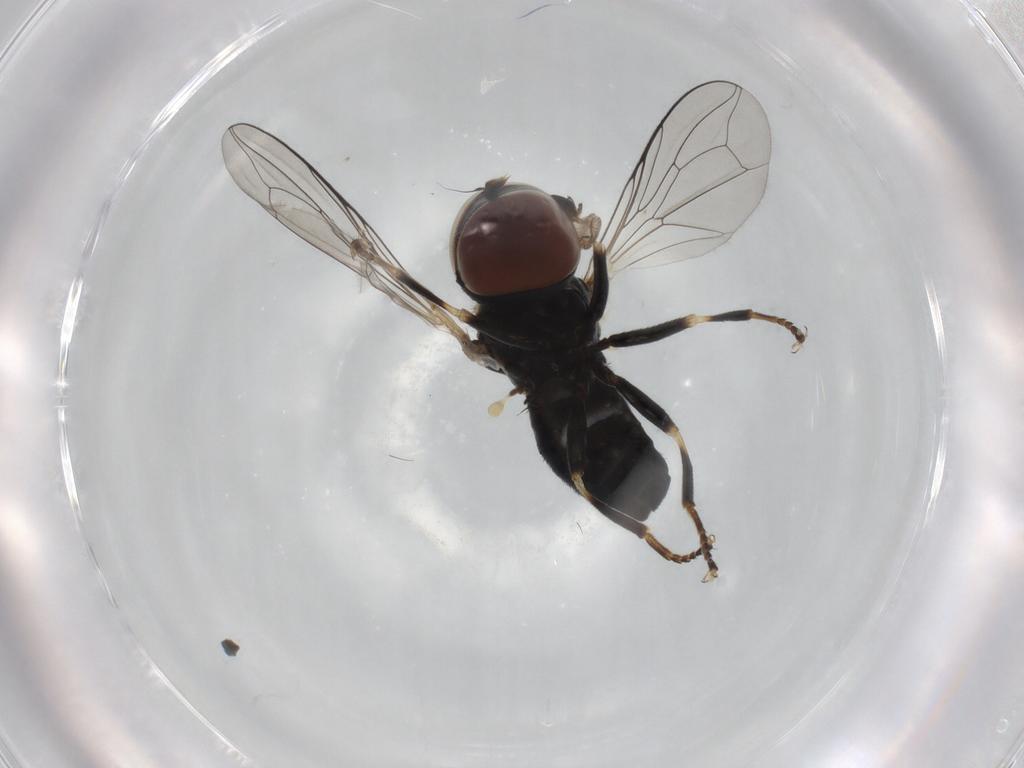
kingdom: Animalia
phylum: Arthropoda
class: Insecta
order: Diptera
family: Pipunculidae
